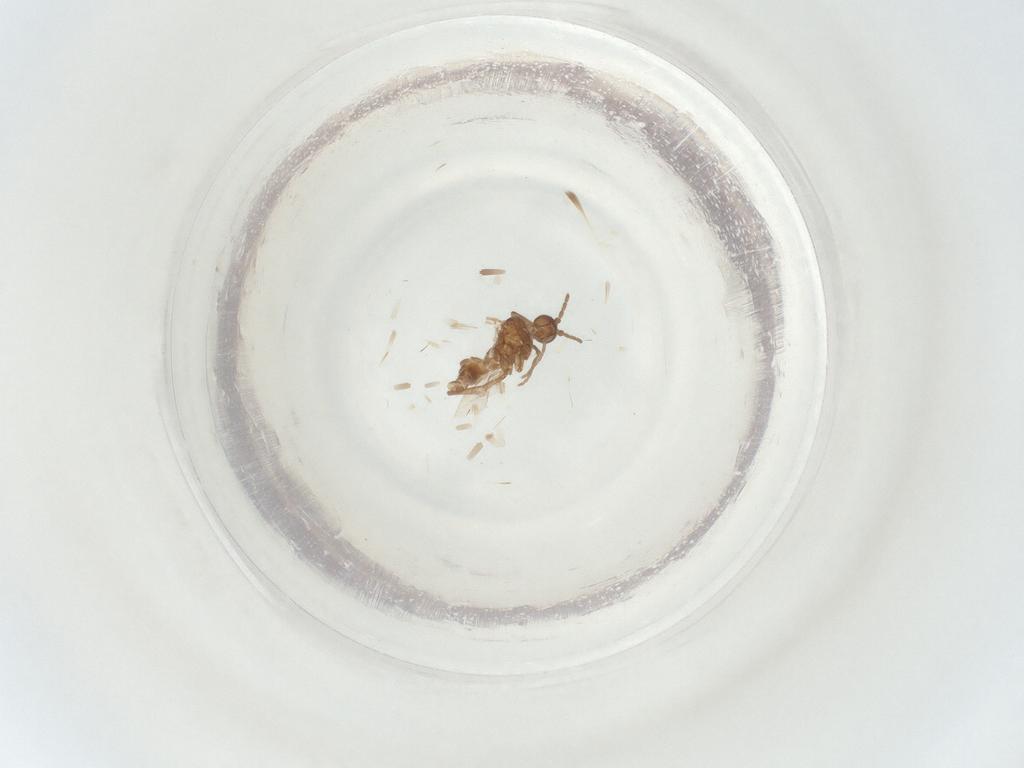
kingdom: Animalia
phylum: Arthropoda
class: Insecta
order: Diptera
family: Sciaridae
